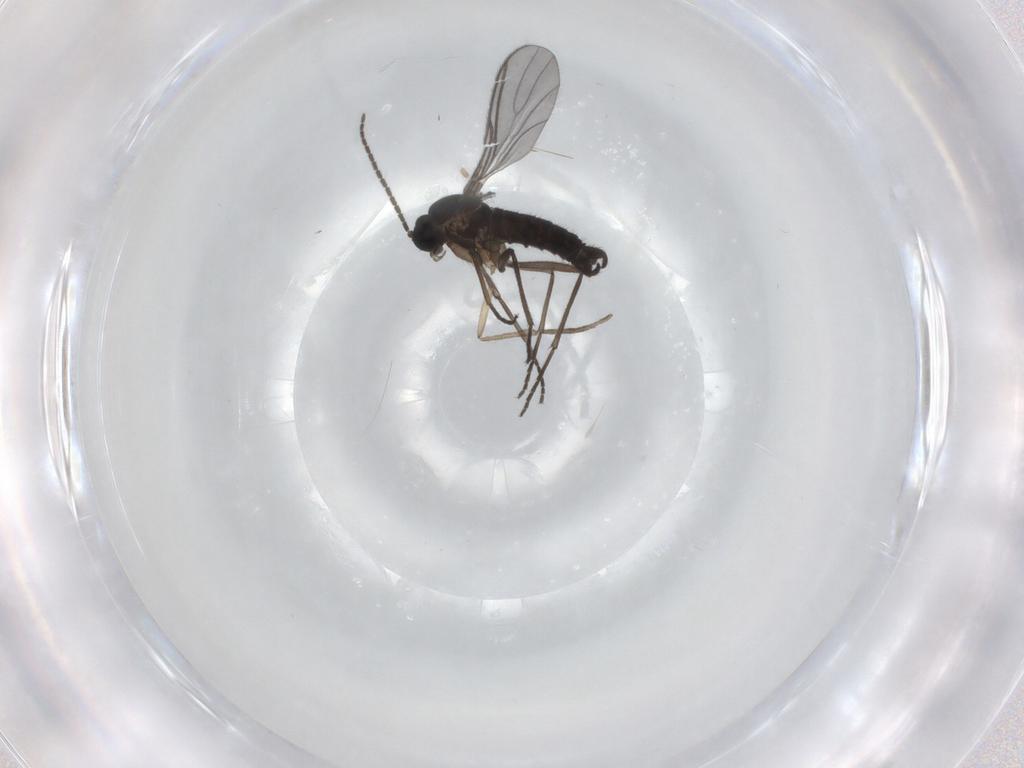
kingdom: Animalia
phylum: Arthropoda
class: Insecta
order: Diptera
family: Psychodidae
